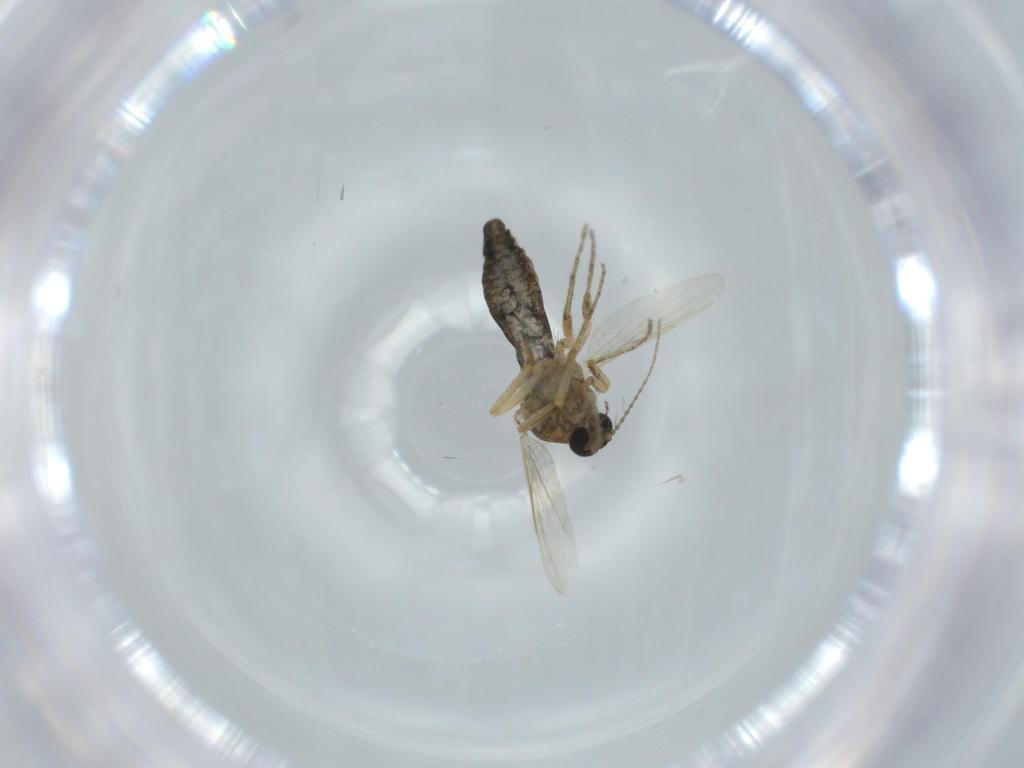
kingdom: Animalia
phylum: Arthropoda
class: Insecta
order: Diptera
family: Ceratopogonidae
